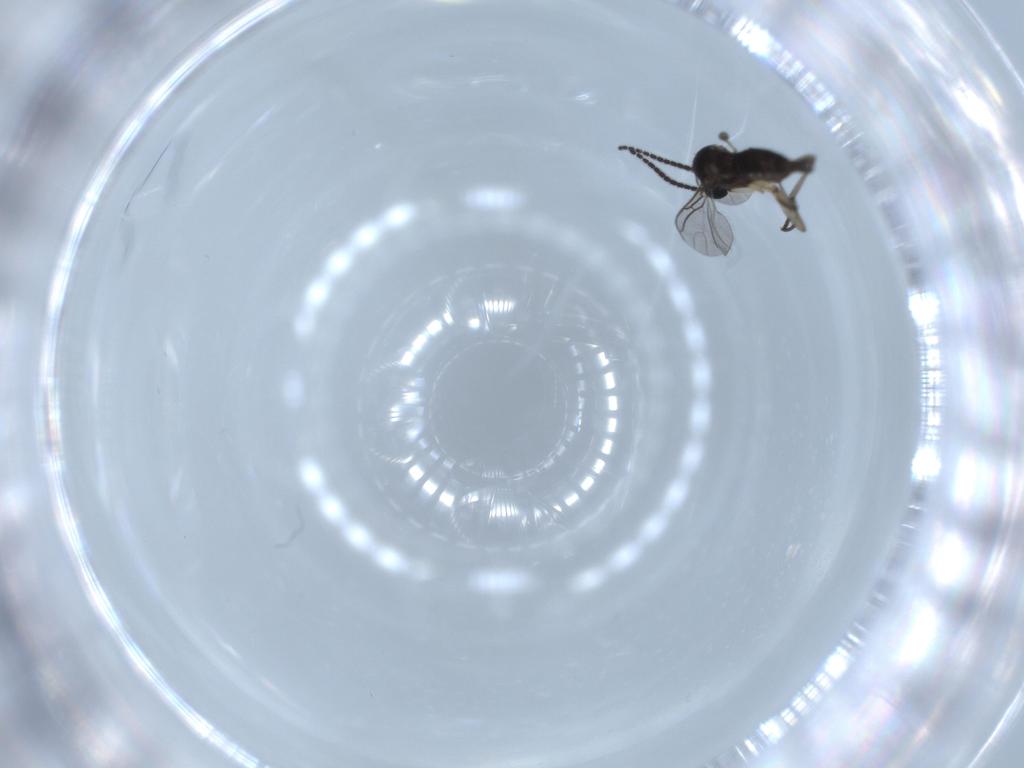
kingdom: Animalia
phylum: Arthropoda
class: Insecta
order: Diptera
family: Sciaridae
